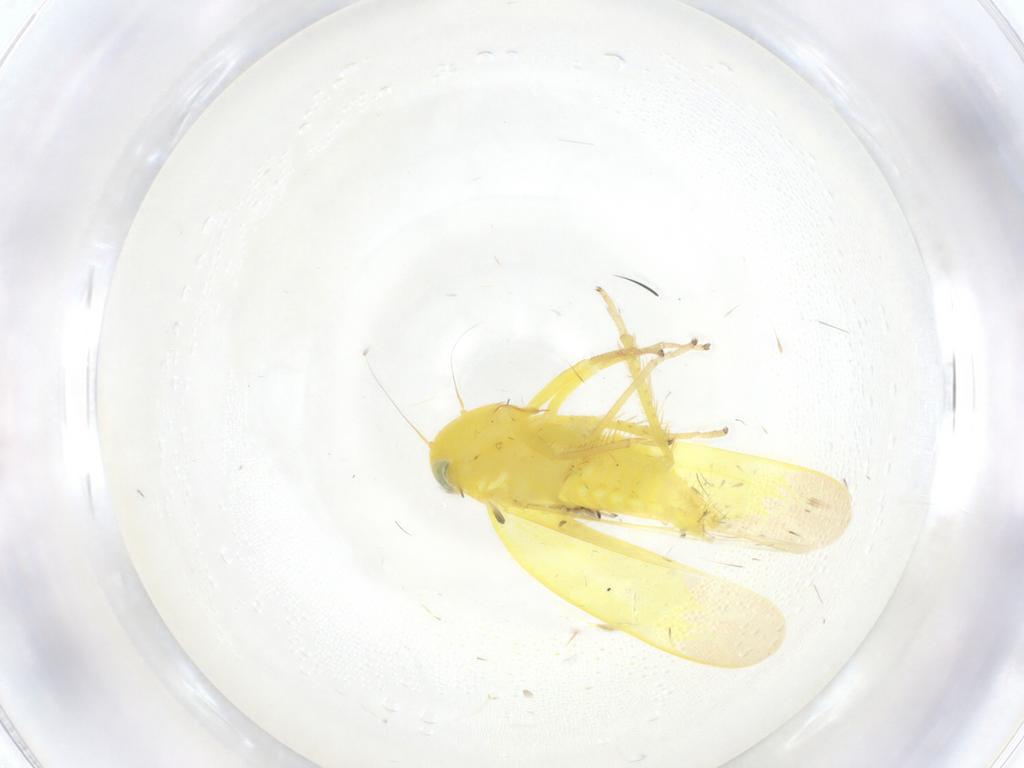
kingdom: Animalia
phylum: Arthropoda
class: Insecta
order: Hemiptera
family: Cicadellidae
